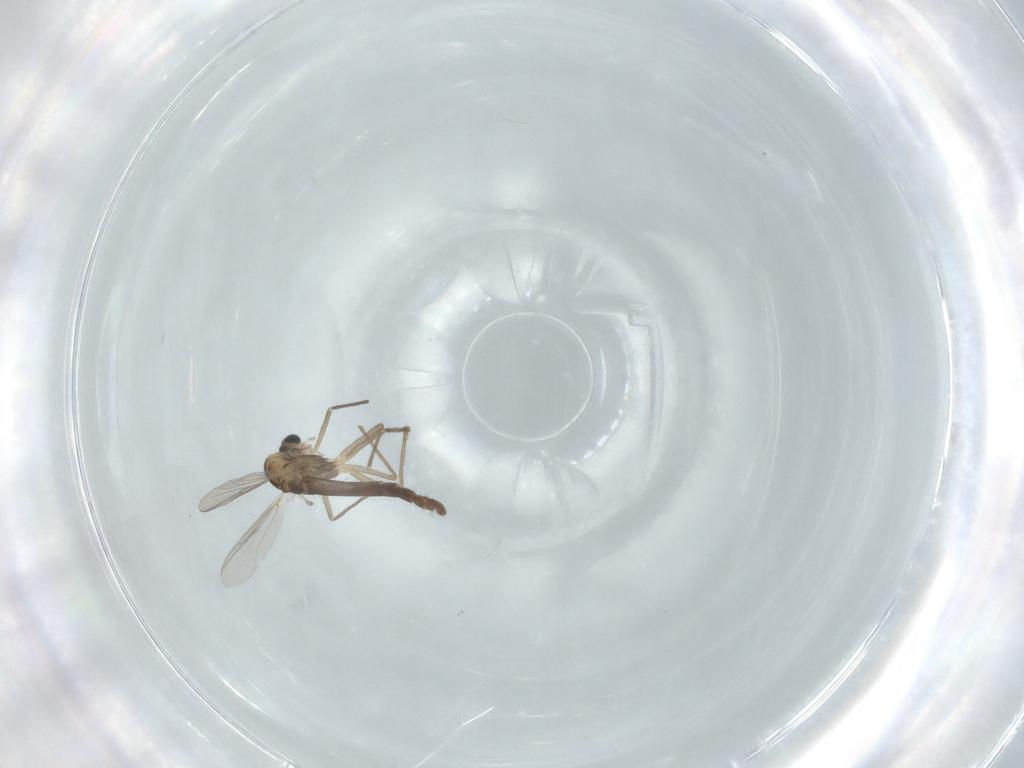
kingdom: Animalia
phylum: Arthropoda
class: Insecta
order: Diptera
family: Chironomidae
